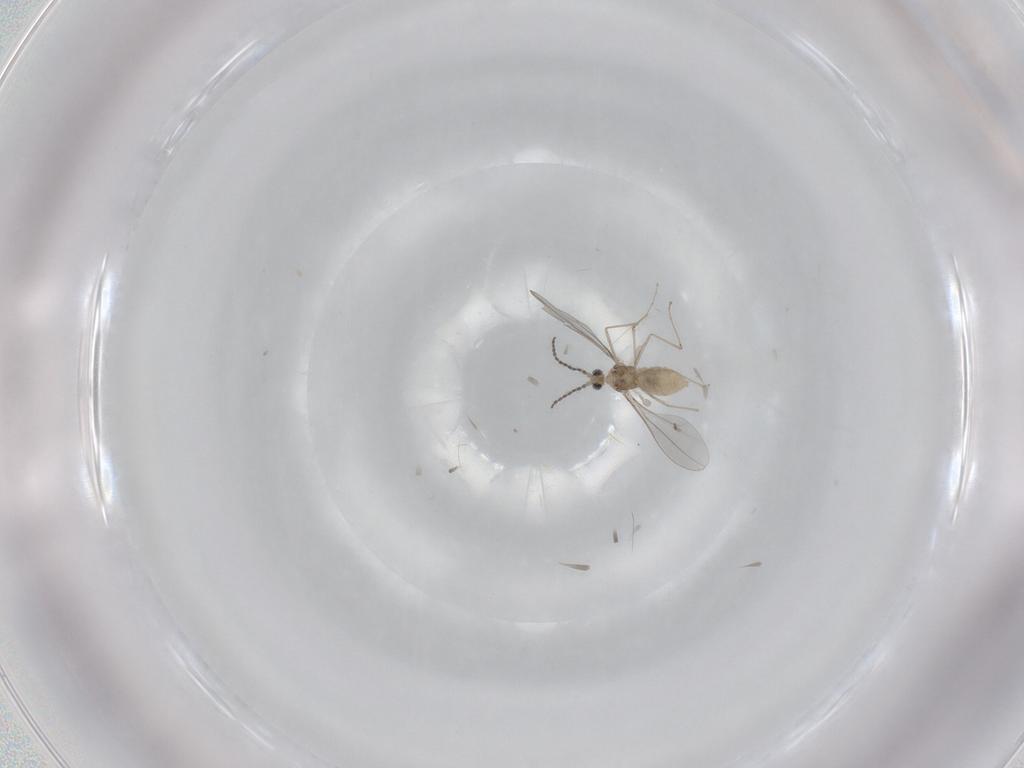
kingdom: Animalia
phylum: Arthropoda
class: Insecta
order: Diptera
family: Cecidomyiidae
